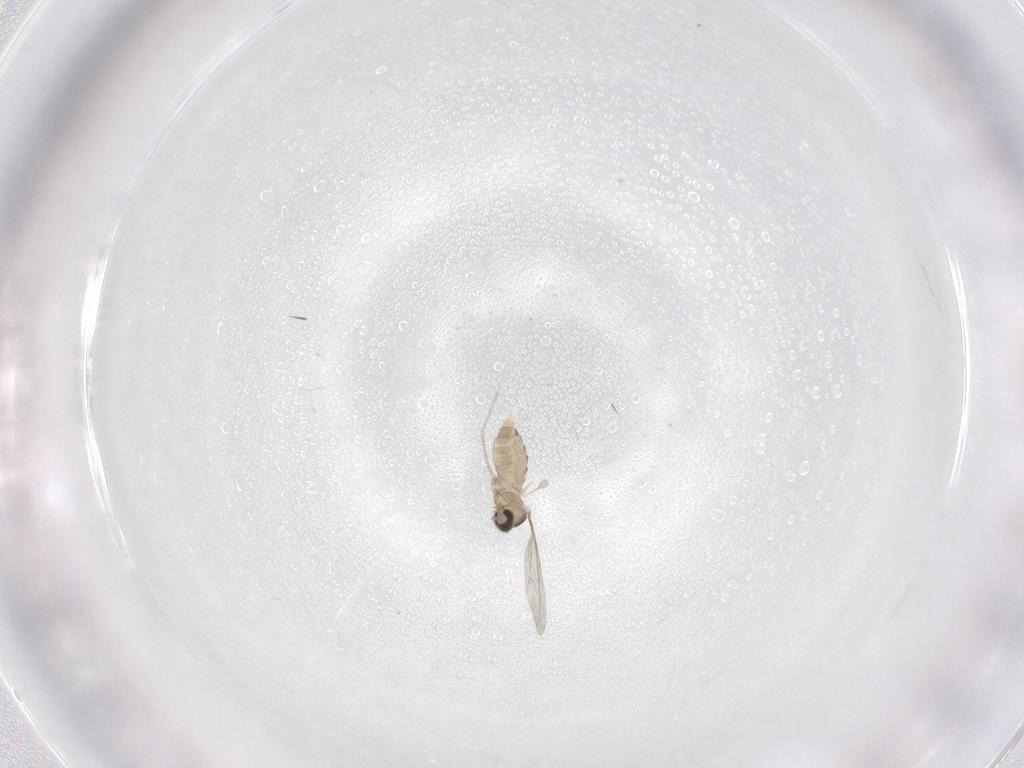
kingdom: Animalia
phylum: Arthropoda
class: Insecta
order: Diptera
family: Cecidomyiidae
